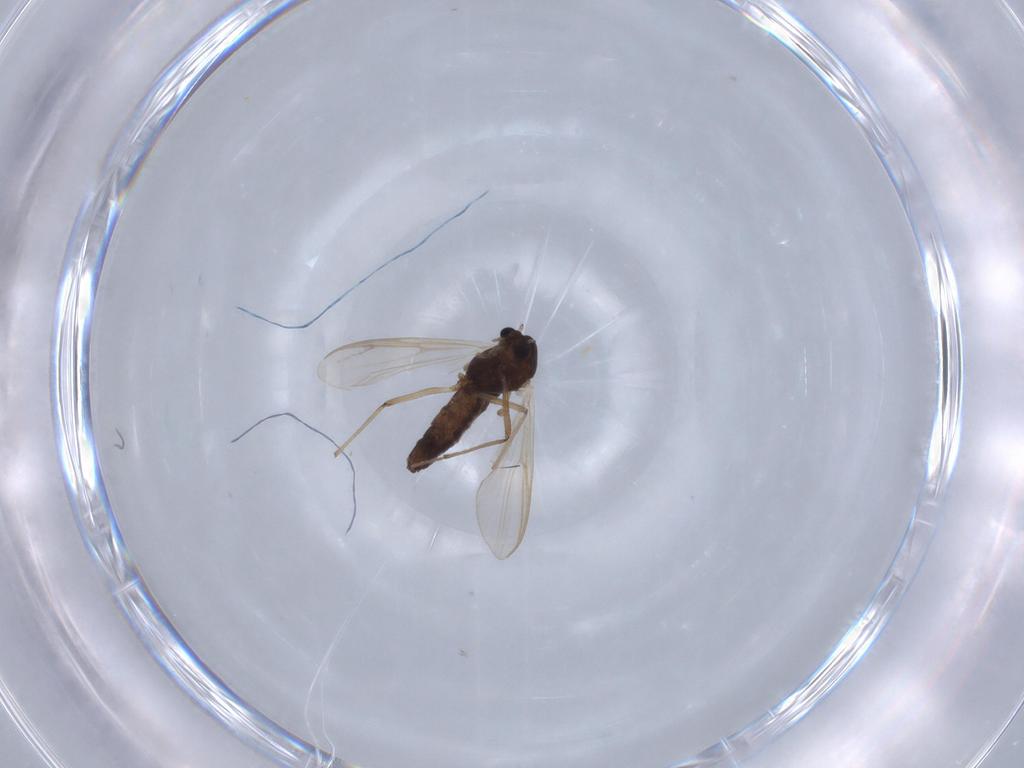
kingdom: Animalia
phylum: Arthropoda
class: Insecta
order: Diptera
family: Chironomidae
